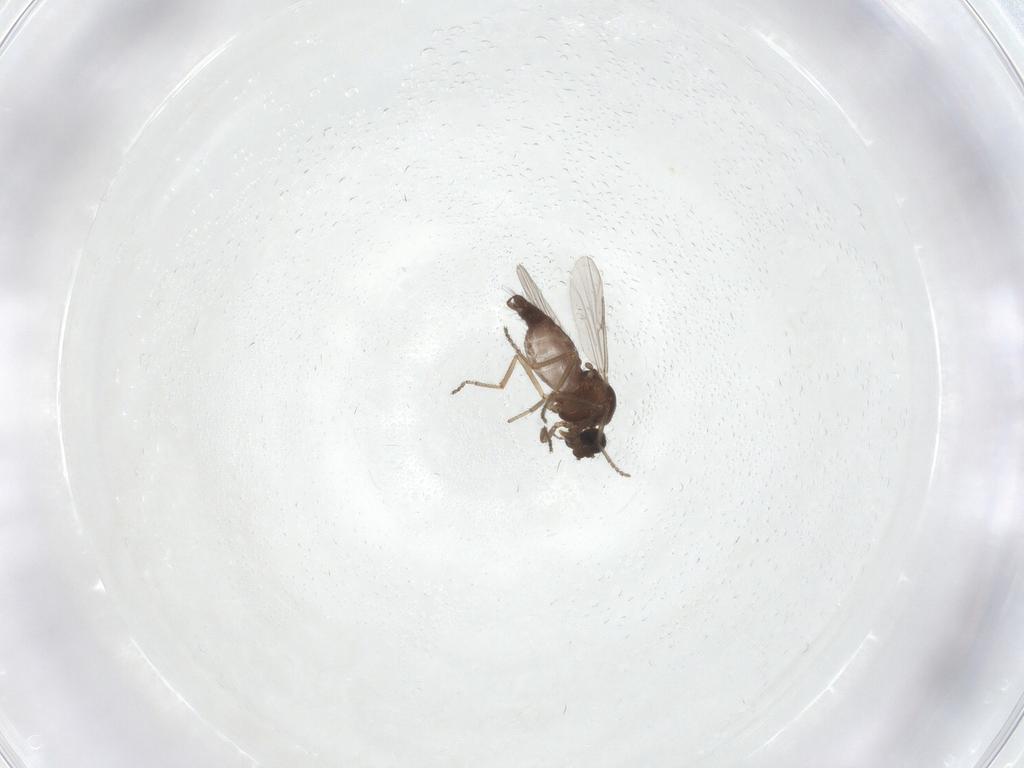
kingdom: Animalia
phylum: Arthropoda
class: Insecta
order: Diptera
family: Ceratopogonidae
